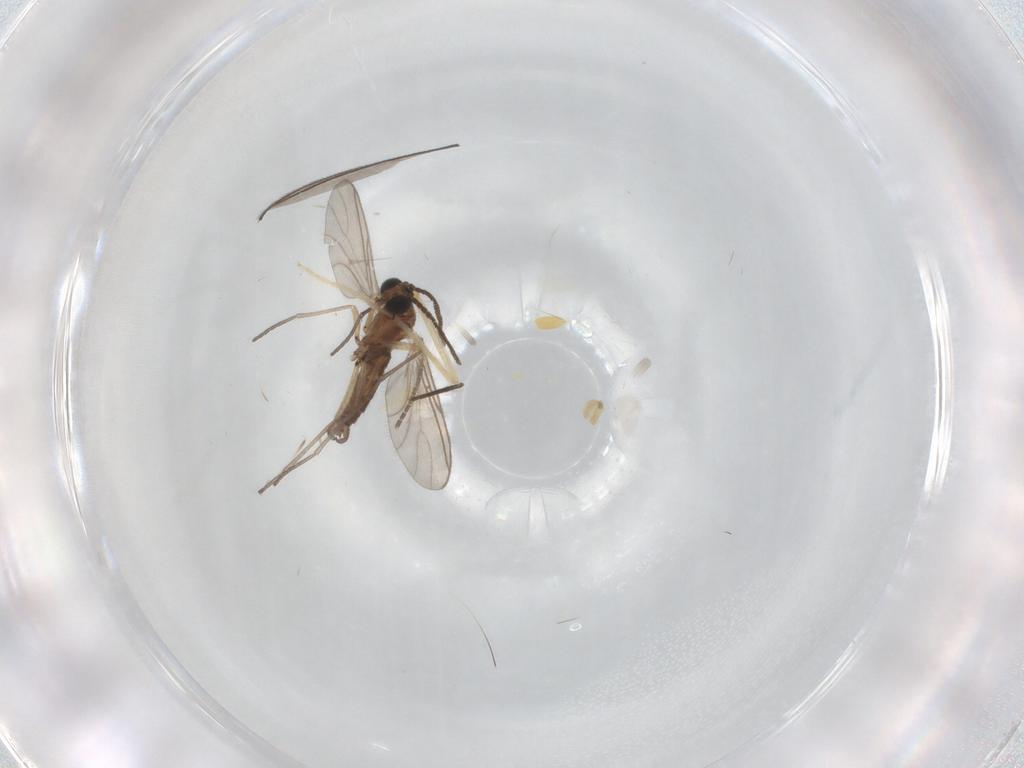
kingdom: Animalia
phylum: Arthropoda
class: Insecta
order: Diptera
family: Sciaridae
